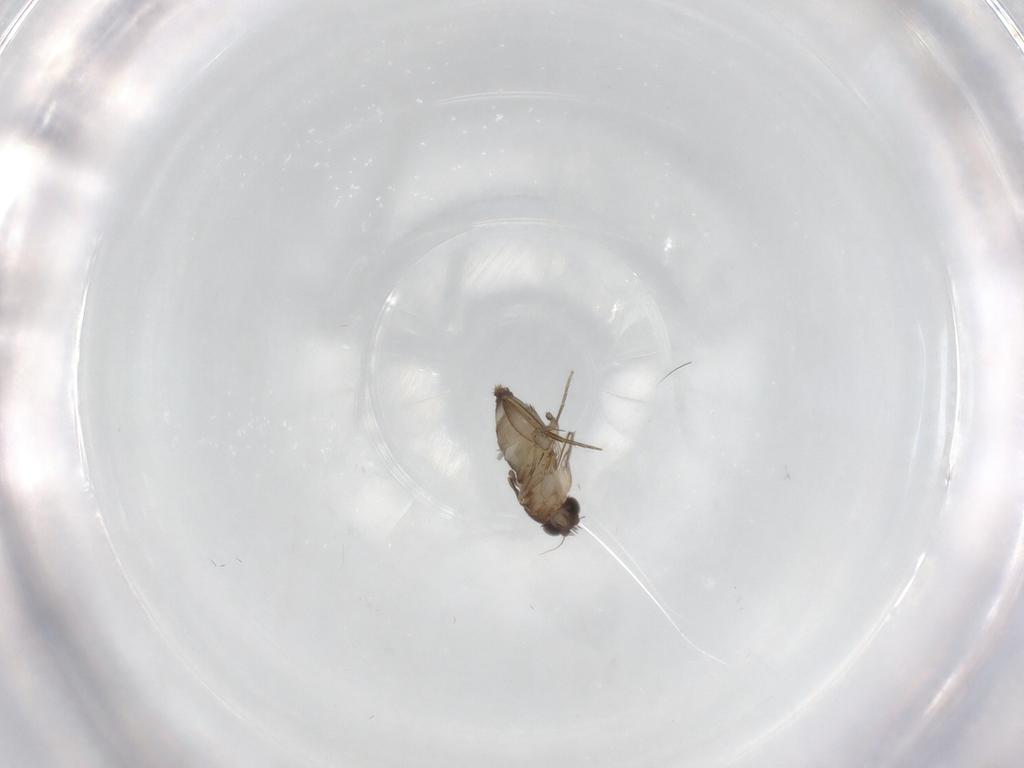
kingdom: Animalia
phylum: Arthropoda
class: Insecta
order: Diptera
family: Phoridae
